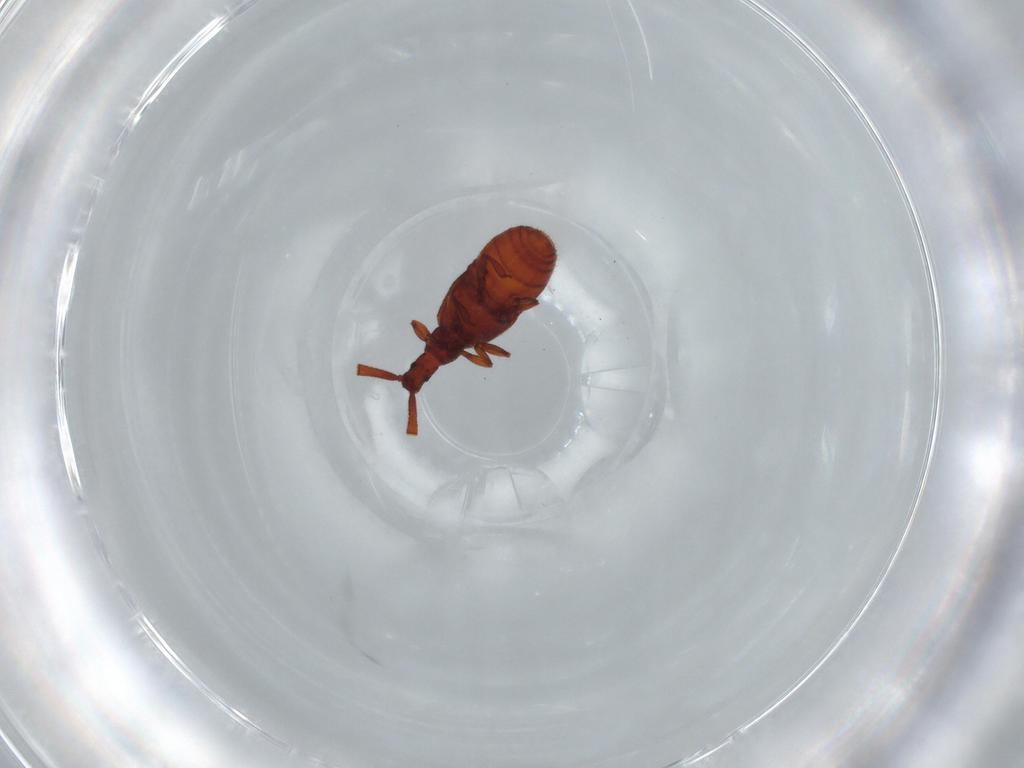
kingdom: Animalia
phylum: Arthropoda
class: Insecta
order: Coleoptera
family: Staphylinidae
